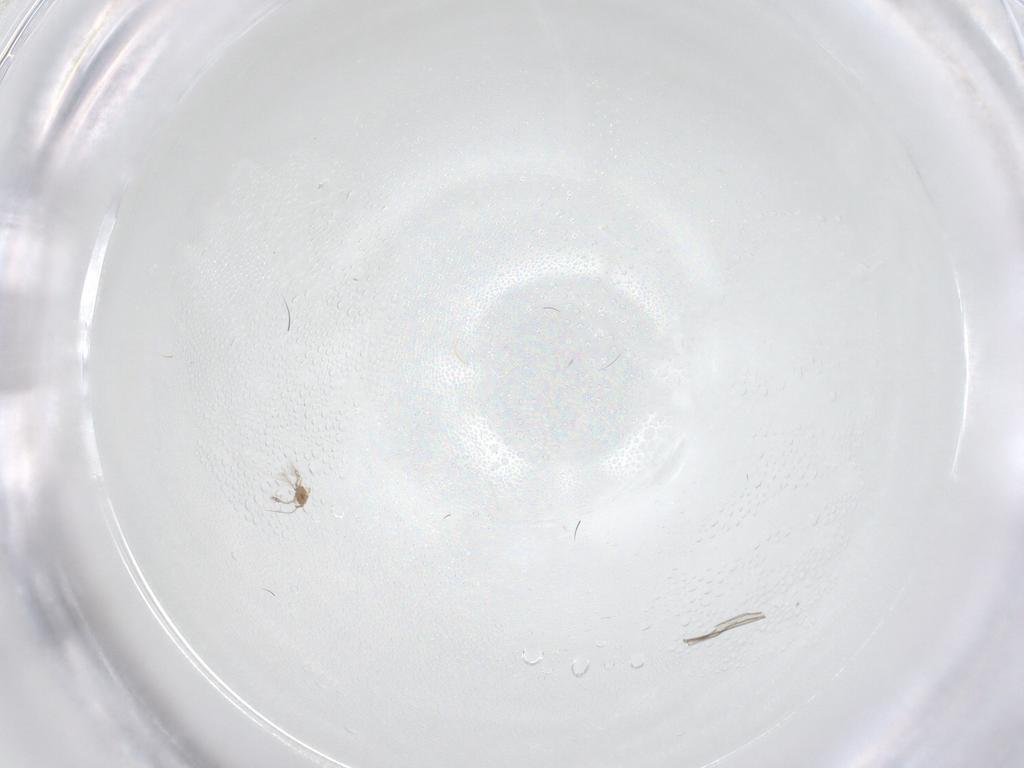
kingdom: Animalia
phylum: Arthropoda
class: Insecta
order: Diptera
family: Cecidomyiidae
